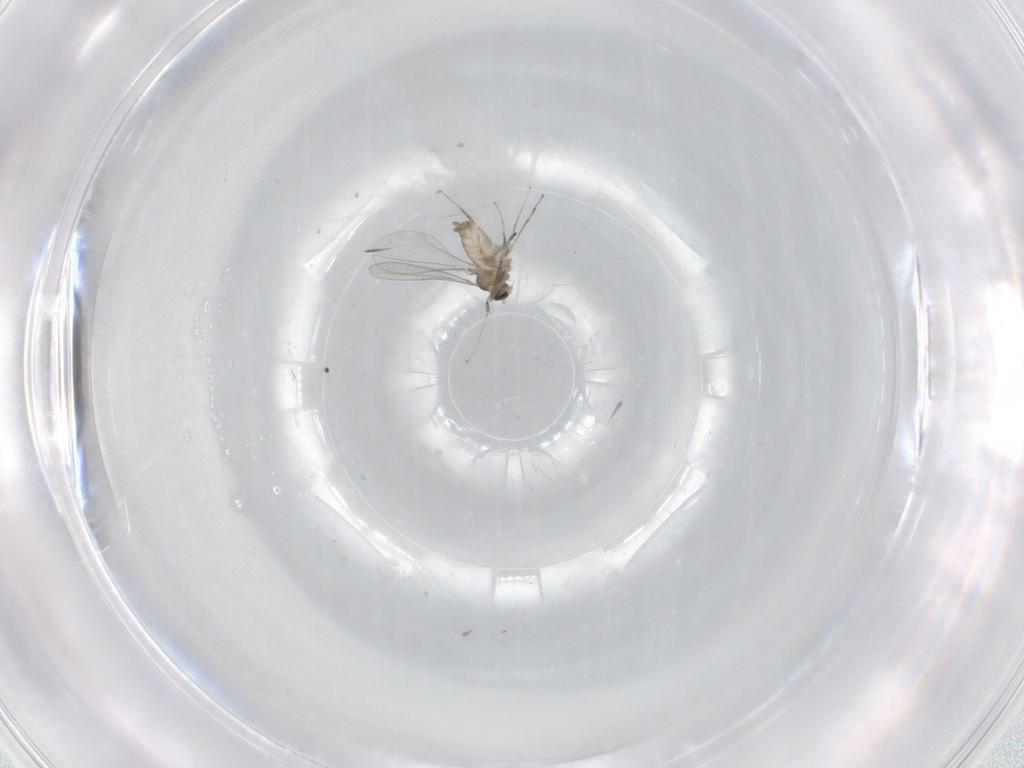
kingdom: Animalia
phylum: Arthropoda
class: Insecta
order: Diptera
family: Cecidomyiidae
